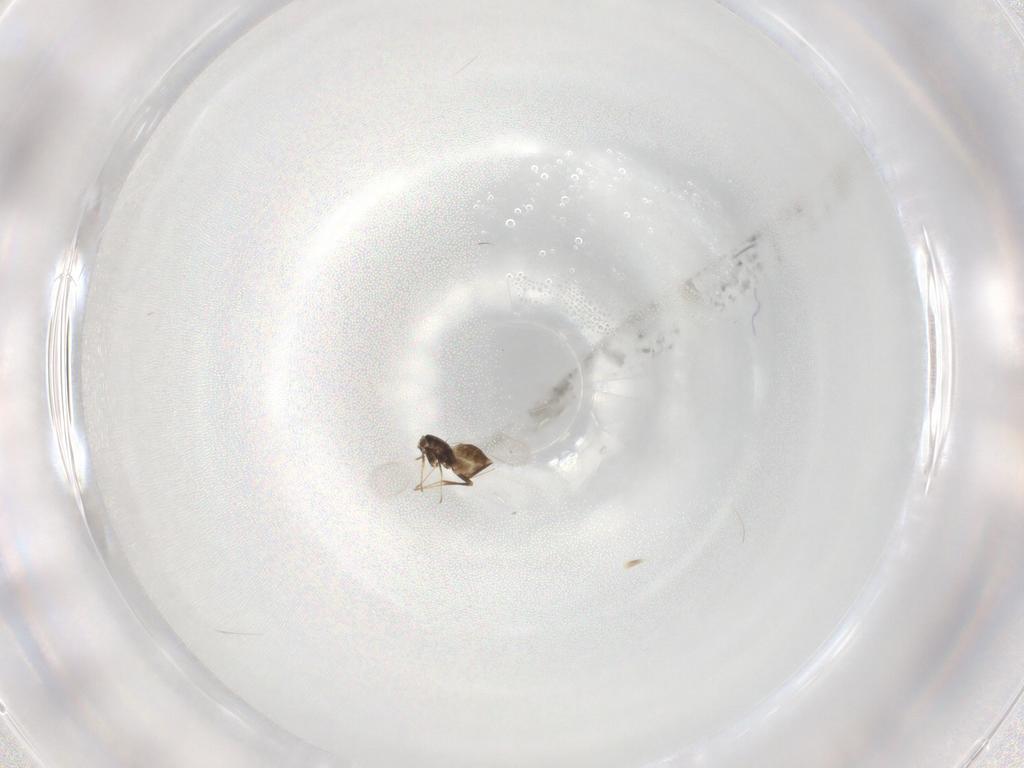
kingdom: Animalia
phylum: Arthropoda
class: Insecta
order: Hymenoptera
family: Mymaridae
